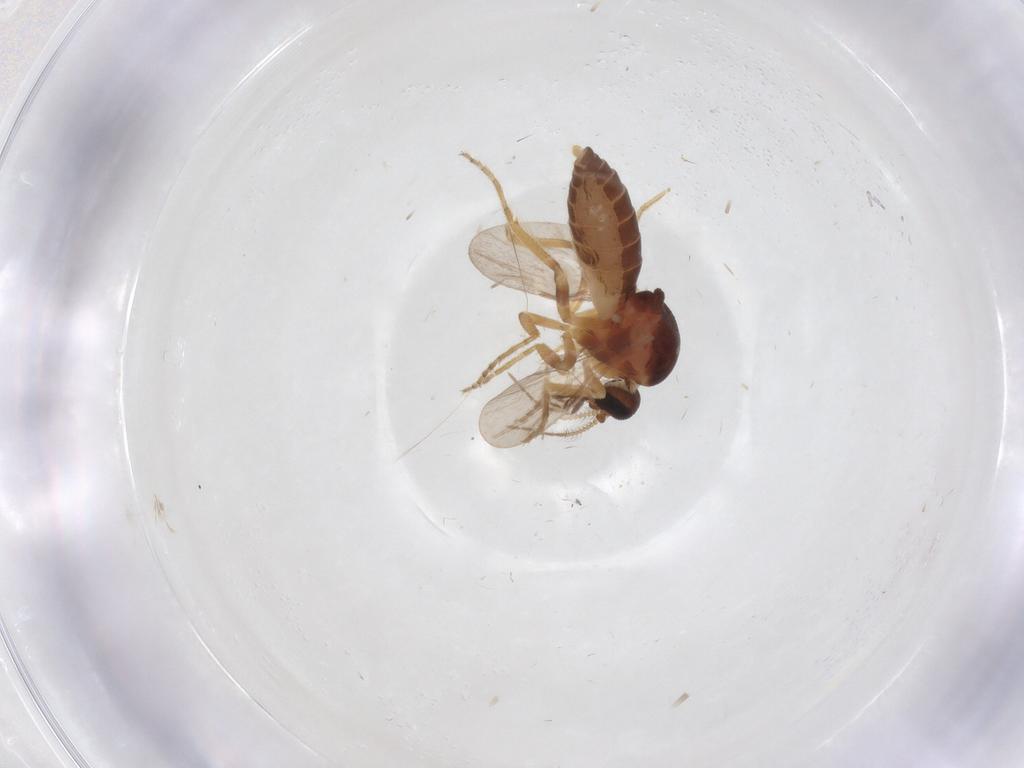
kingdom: Animalia
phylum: Arthropoda
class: Insecta
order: Diptera
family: Ceratopogonidae
